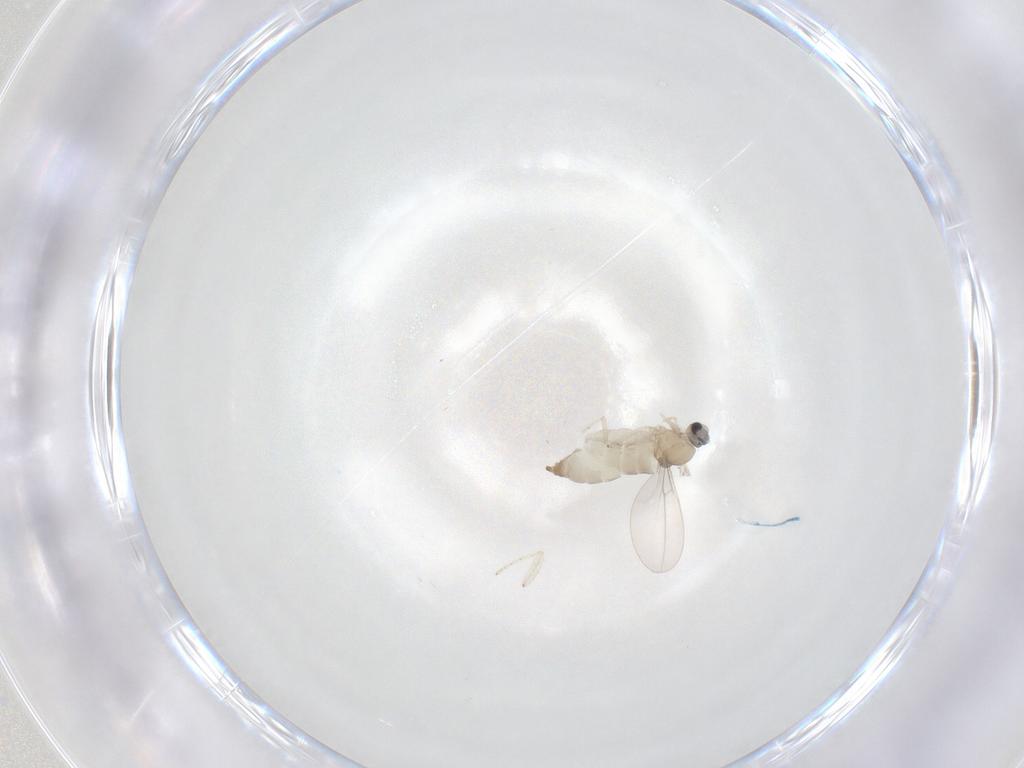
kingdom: Animalia
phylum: Arthropoda
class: Insecta
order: Diptera
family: Cecidomyiidae
